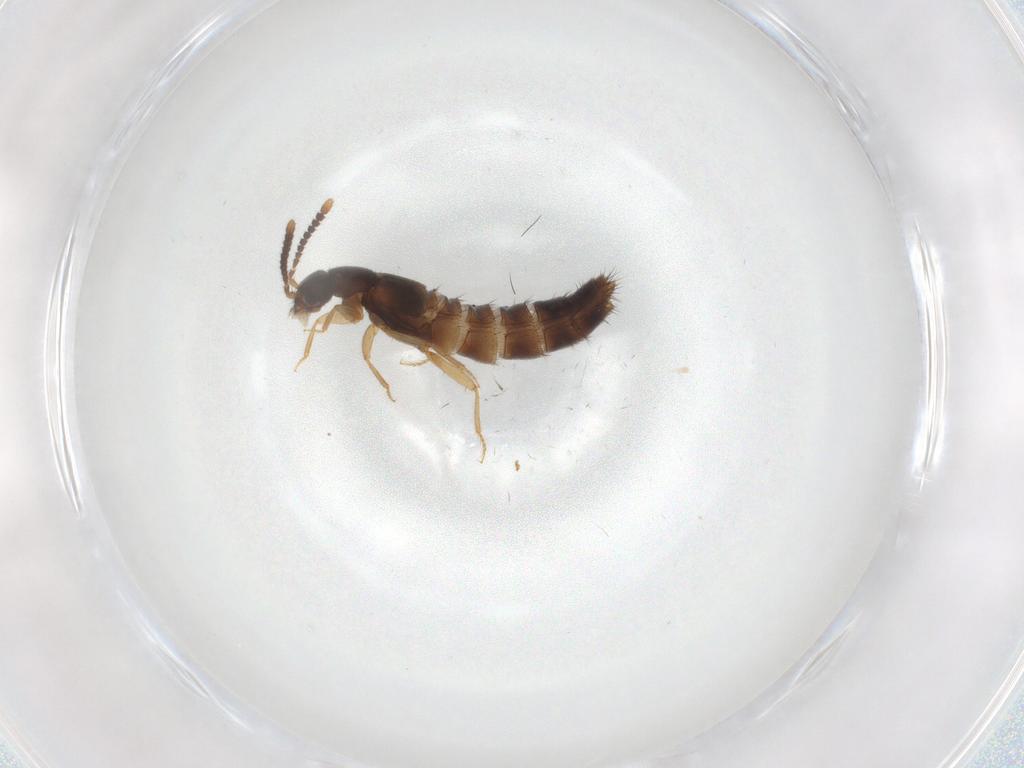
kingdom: Animalia
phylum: Arthropoda
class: Insecta
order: Coleoptera
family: Staphylinidae
